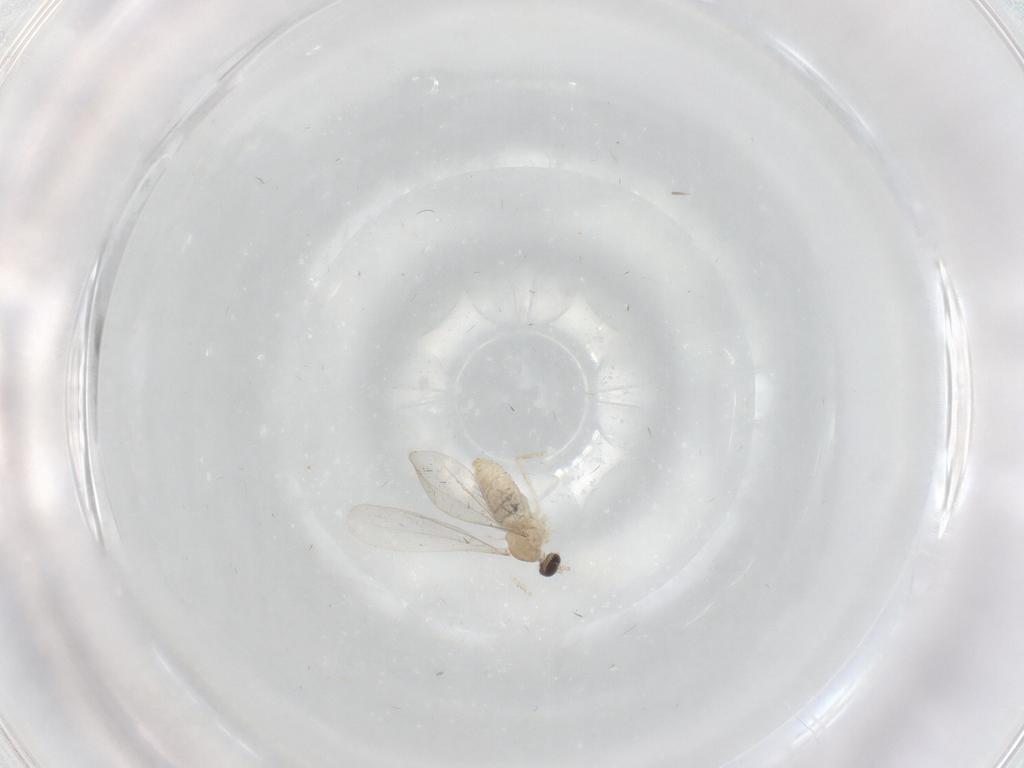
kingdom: Animalia
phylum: Arthropoda
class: Insecta
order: Diptera
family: Cecidomyiidae
